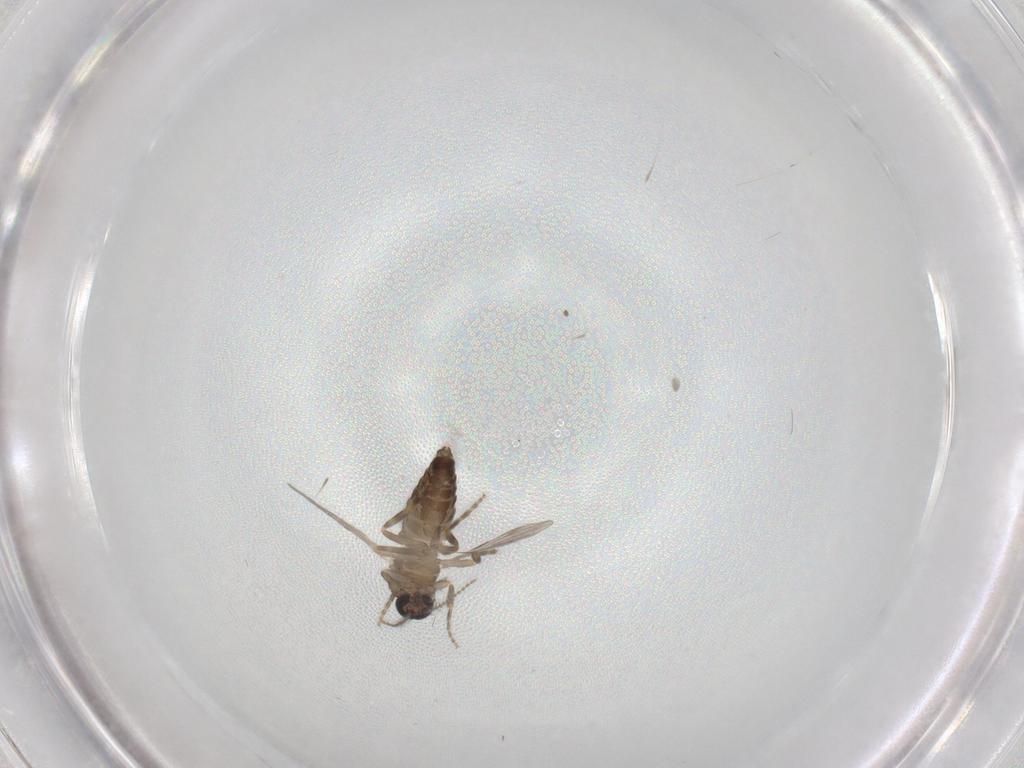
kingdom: Animalia
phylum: Arthropoda
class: Insecta
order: Diptera
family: Ceratopogonidae
